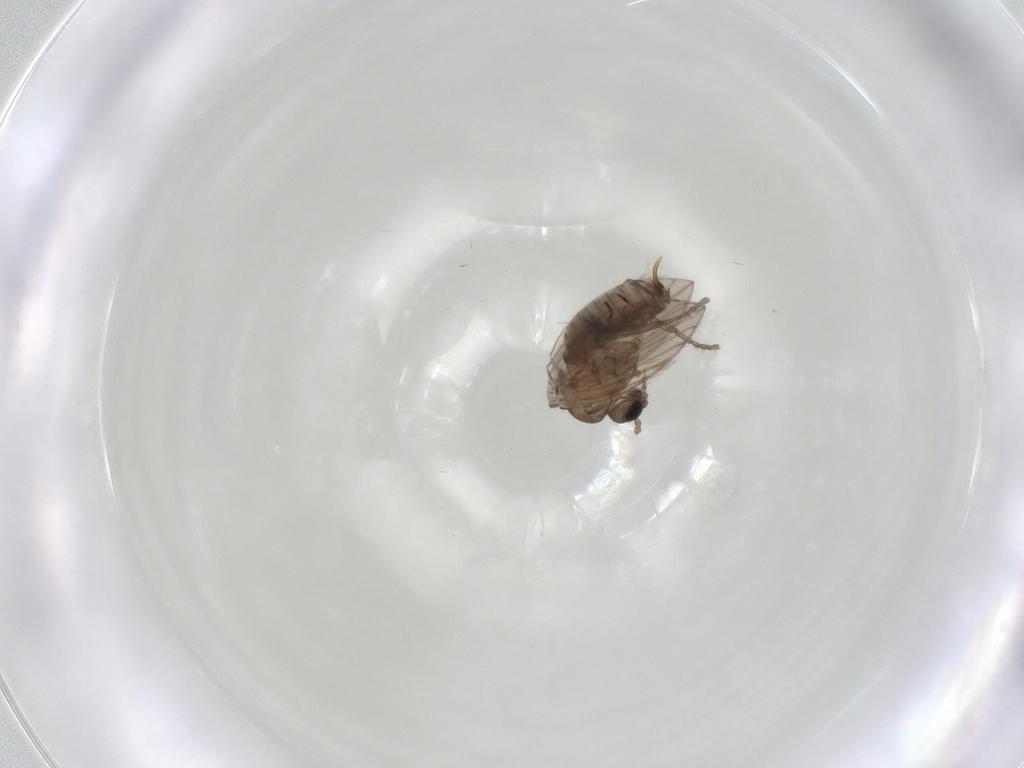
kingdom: Animalia
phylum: Arthropoda
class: Insecta
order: Diptera
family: Psychodidae
